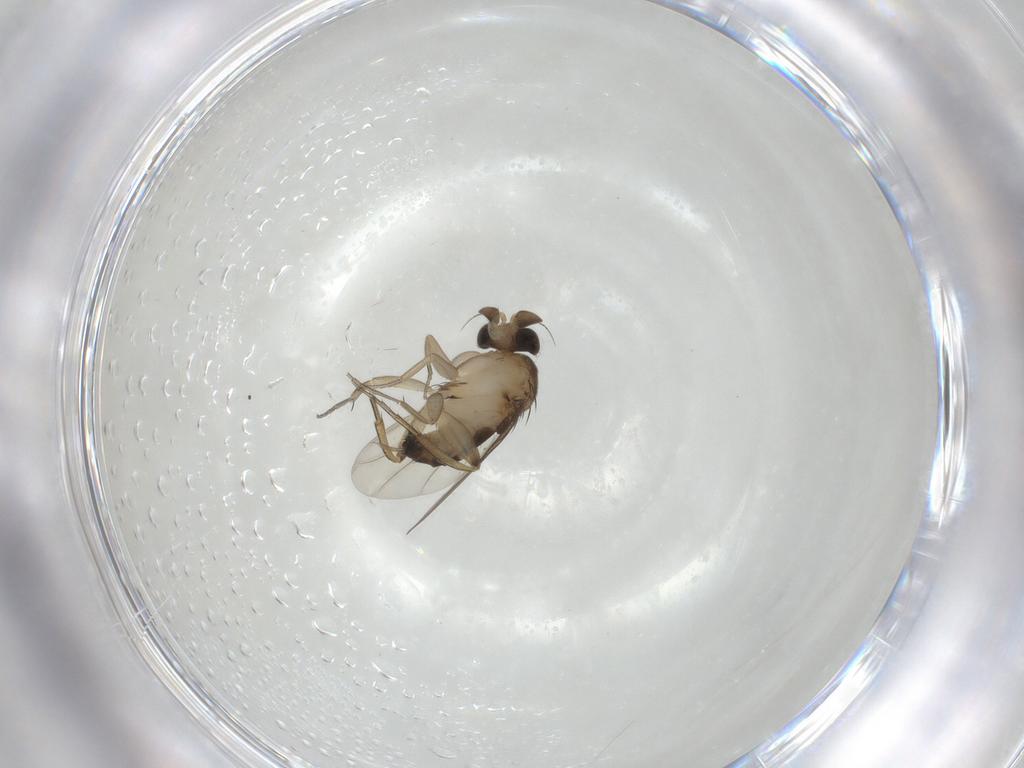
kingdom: Animalia
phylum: Arthropoda
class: Insecta
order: Diptera
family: Phoridae
